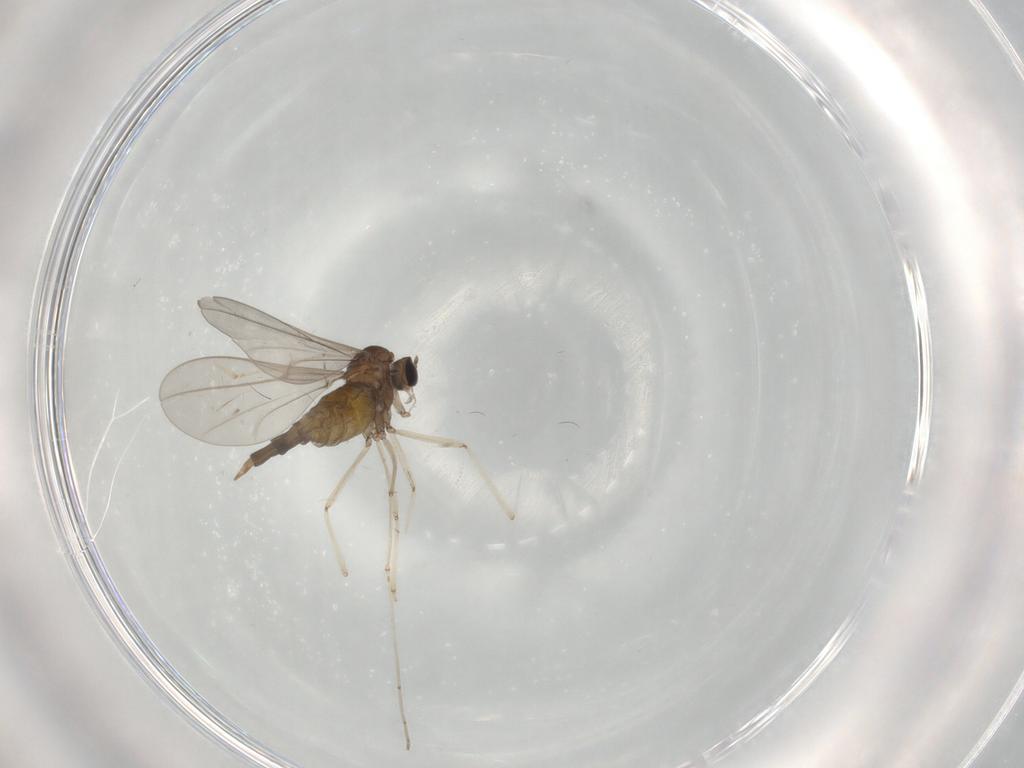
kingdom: Animalia
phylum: Arthropoda
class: Insecta
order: Diptera
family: Cecidomyiidae
